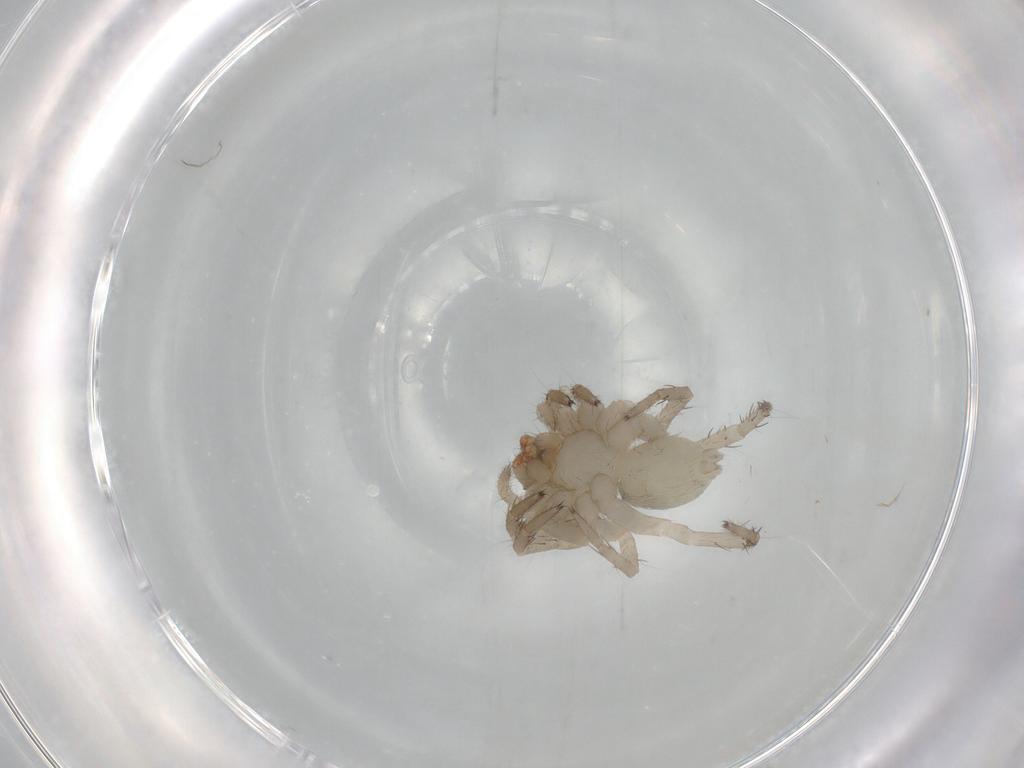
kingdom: Animalia
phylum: Arthropoda
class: Arachnida
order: Araneae
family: Lycosidae
